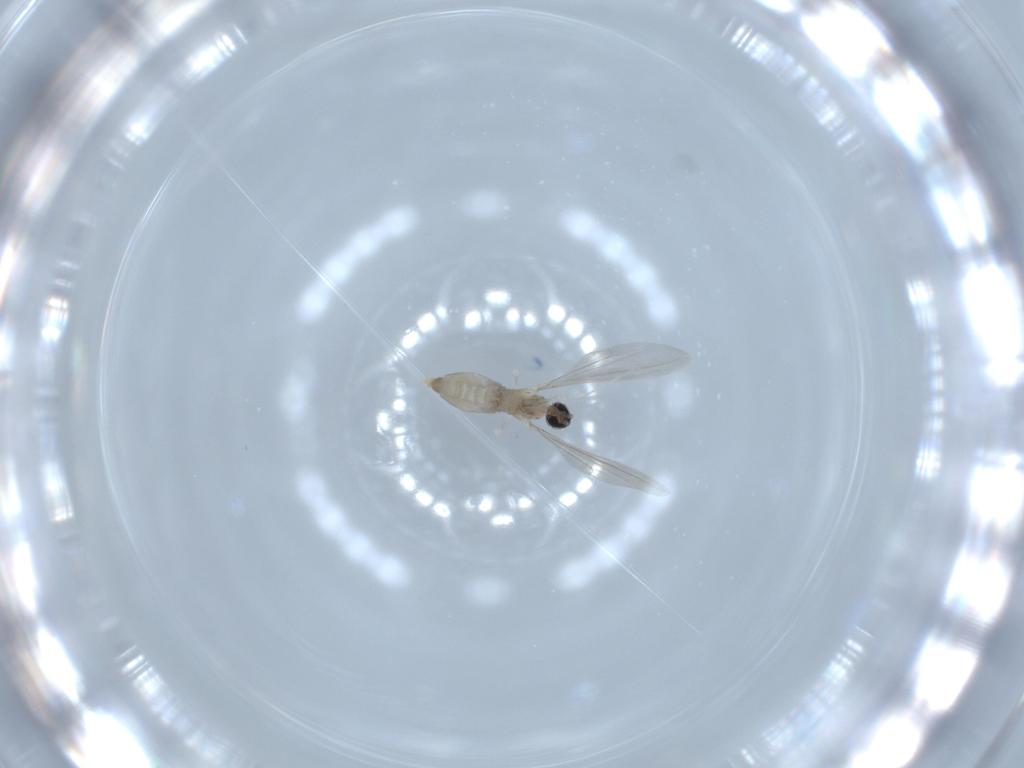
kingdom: Animalia
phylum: Arthropoda
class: Insecta
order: Diptera
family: Cecidomyiidae
